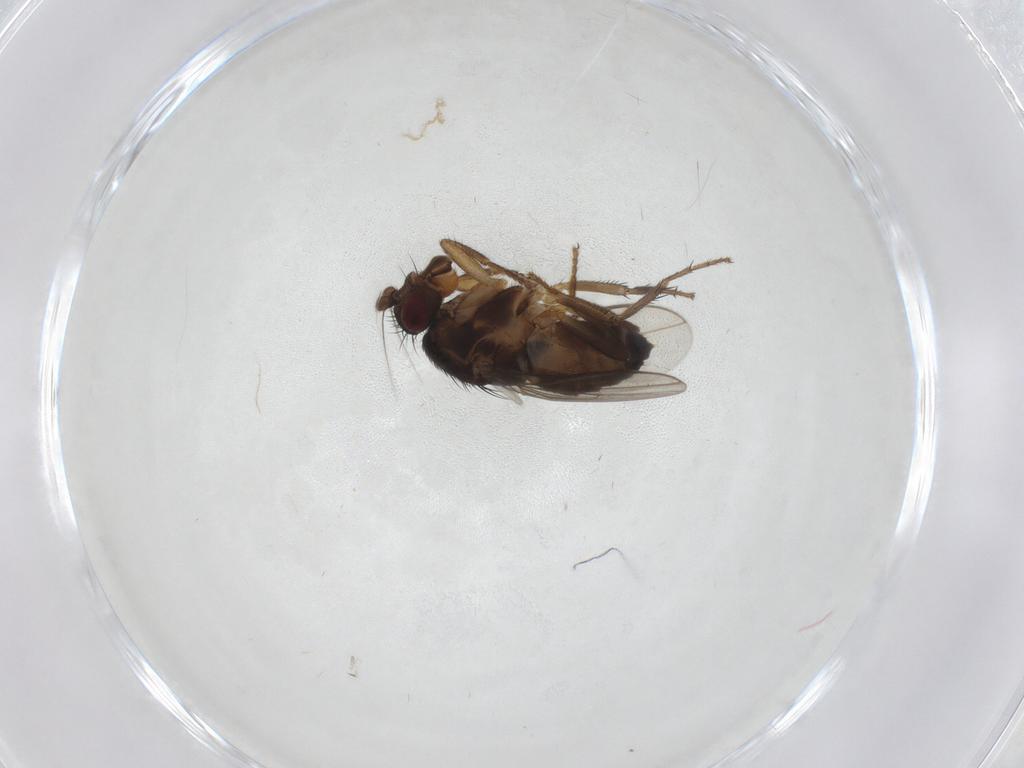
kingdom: Animalia
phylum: Arthropoda
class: Insecta
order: Diptera
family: Sphaeroceridae
